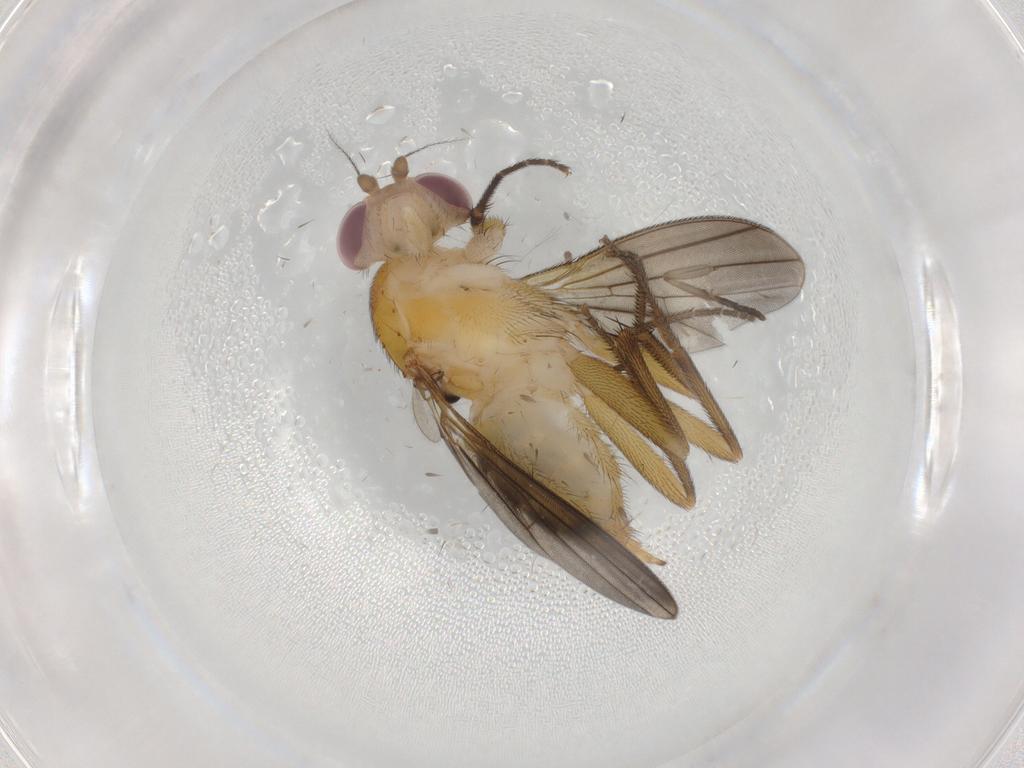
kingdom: Animalia
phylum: Arthropoda
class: Insecta
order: Diptera
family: Clusiidae
